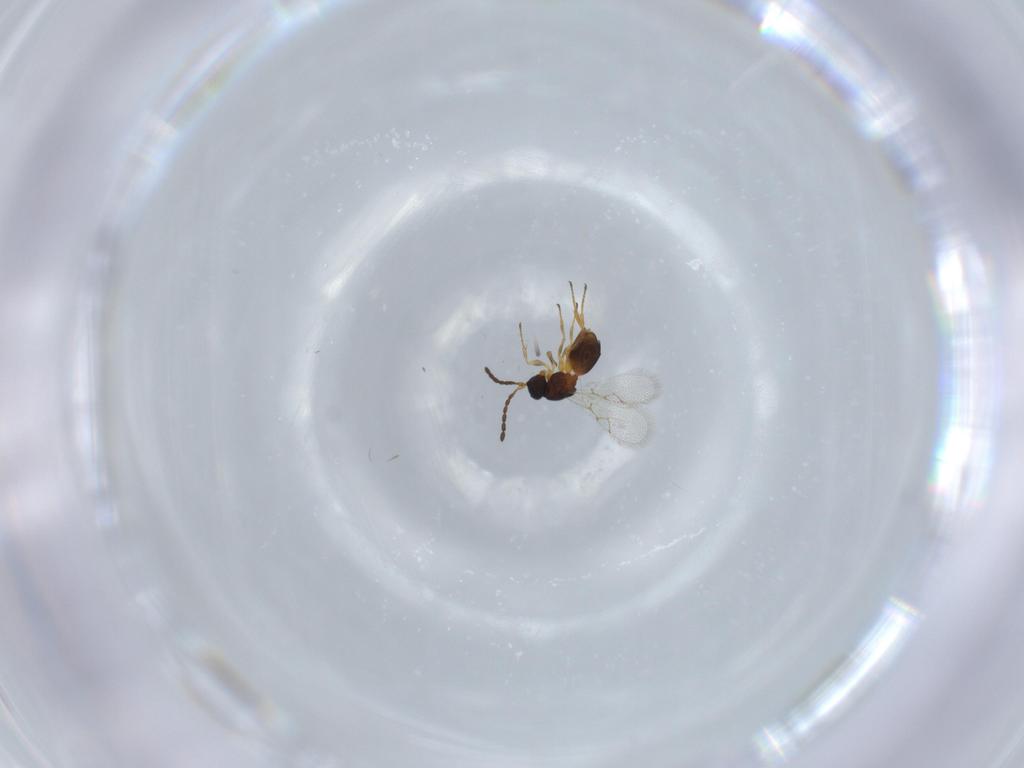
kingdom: Animalia
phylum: Arthropoda
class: Insecta
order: Hymenoptera
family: Figitidae
